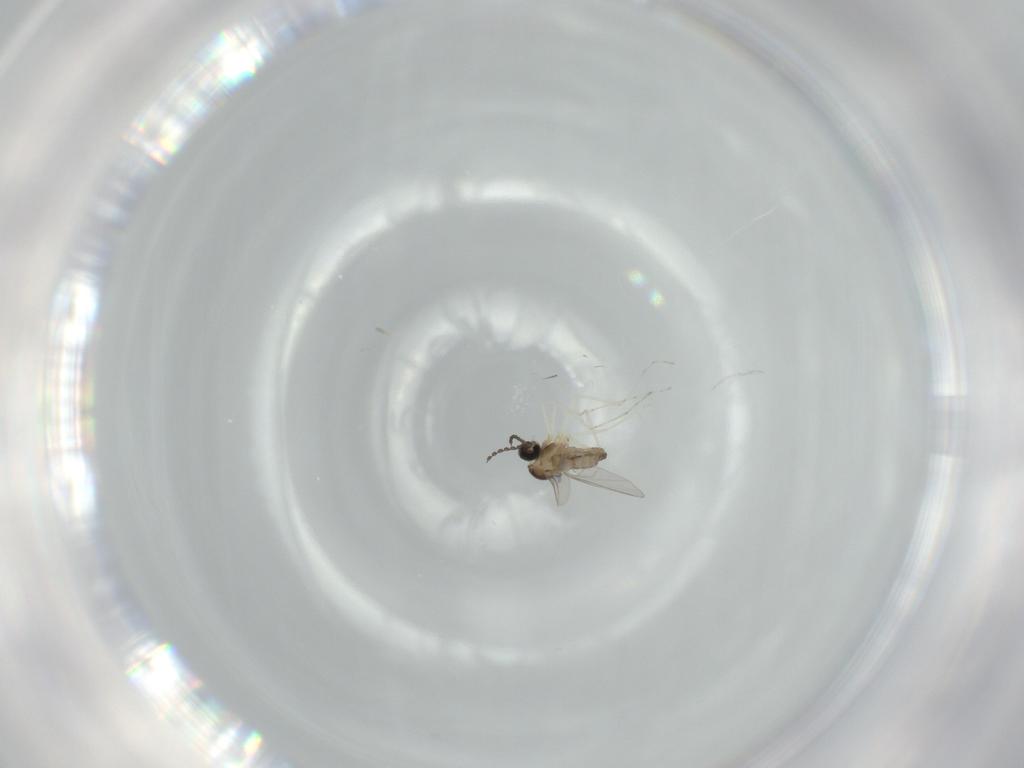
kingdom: Animalia
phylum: Arthropoda
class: Insecta
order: Diptera
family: Cecidomyiidae
